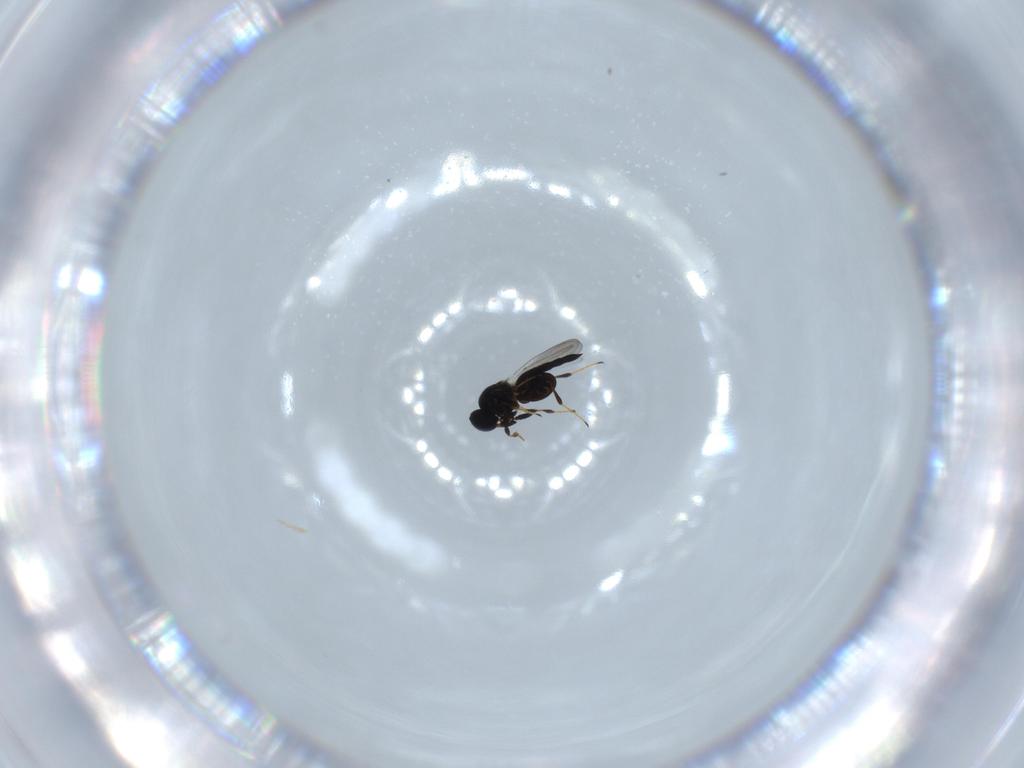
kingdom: Animalia
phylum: Arthropoda
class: Insecta
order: Hymenoptera
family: Platygastridae
